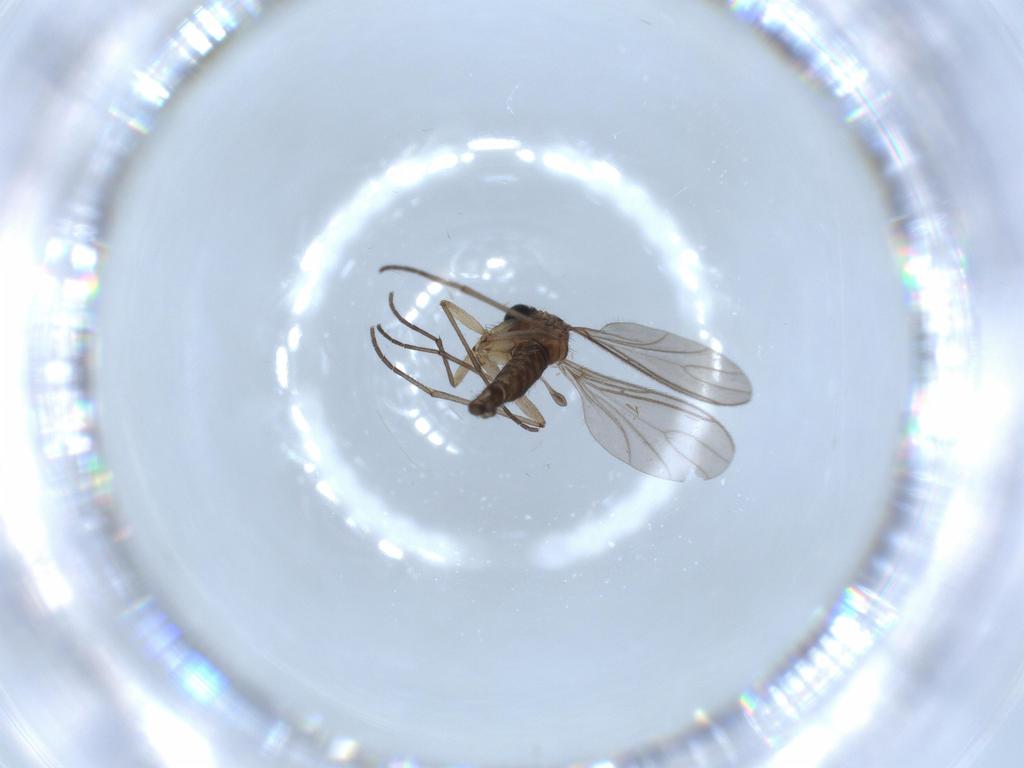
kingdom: Animalia
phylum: Arthropoda
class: Insecta
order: Diptera
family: Sciaridae
